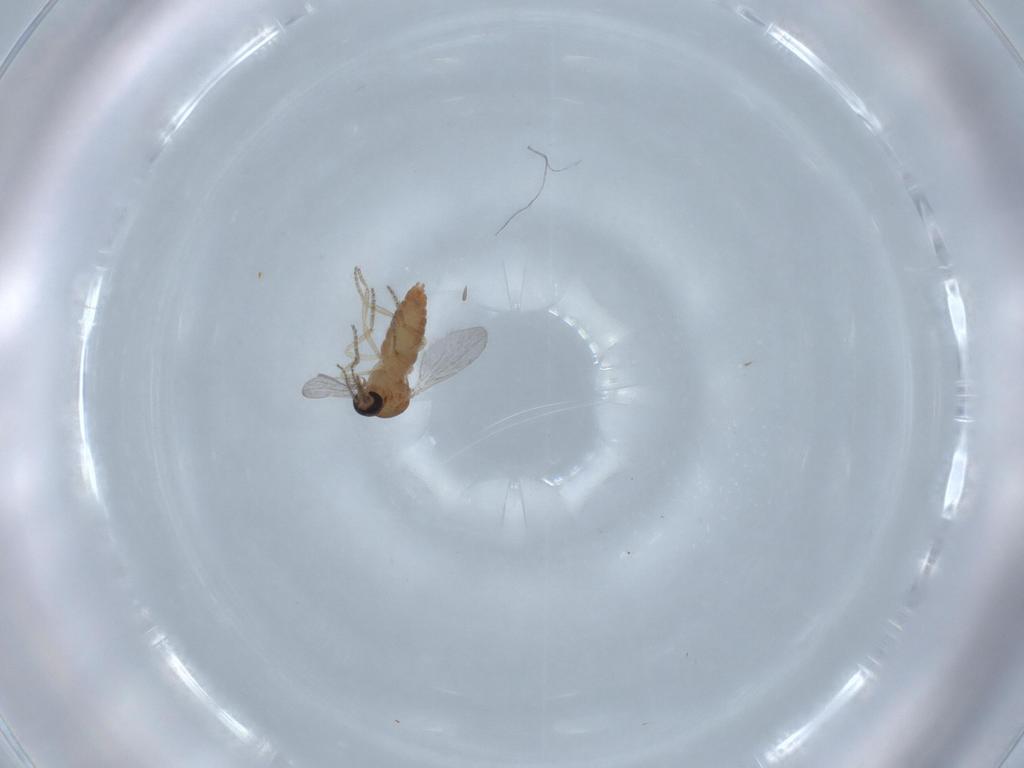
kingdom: Animalia
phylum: Arthropoda
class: Insecta
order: Diptera
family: Ceratopogonidae
